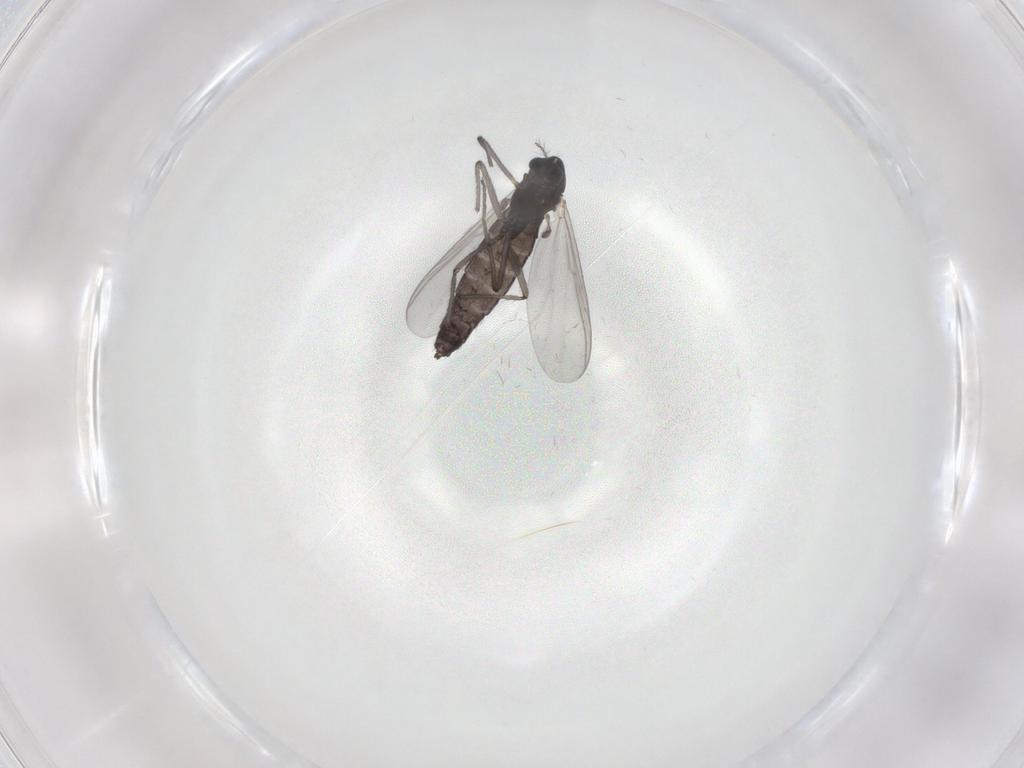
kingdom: Animalia
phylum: Arthropoda
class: Insecta
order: Diptera
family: Chironomidae
